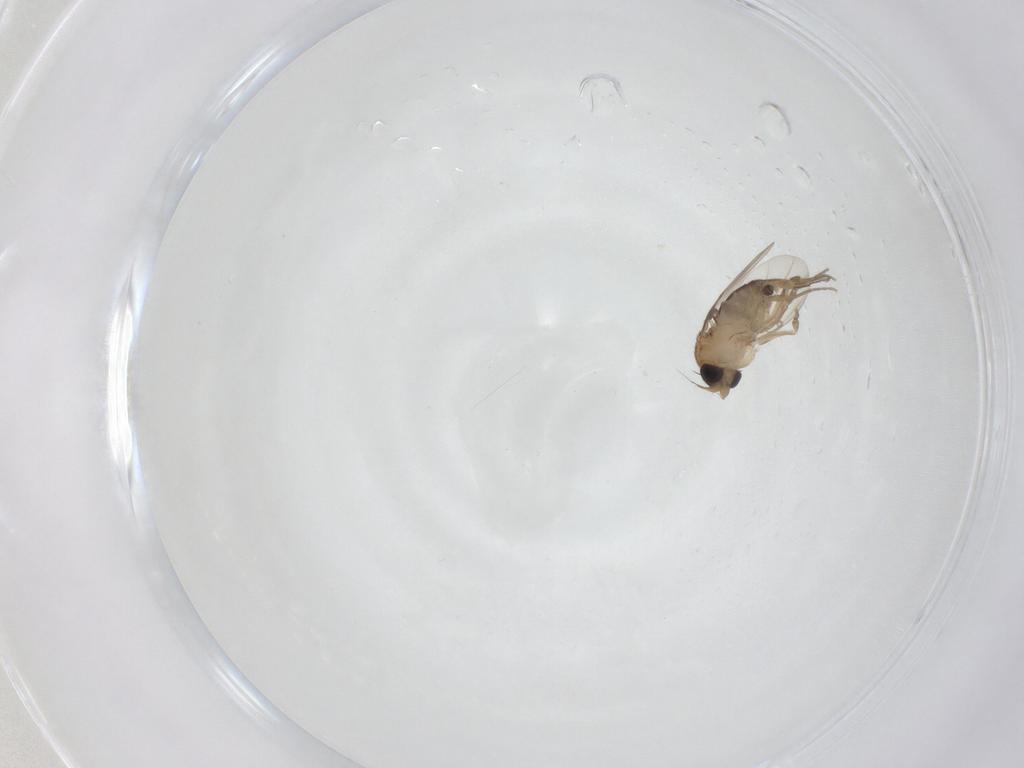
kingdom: Animalia
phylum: Arthropoda
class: Insecta
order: Diptera
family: Phoridae
